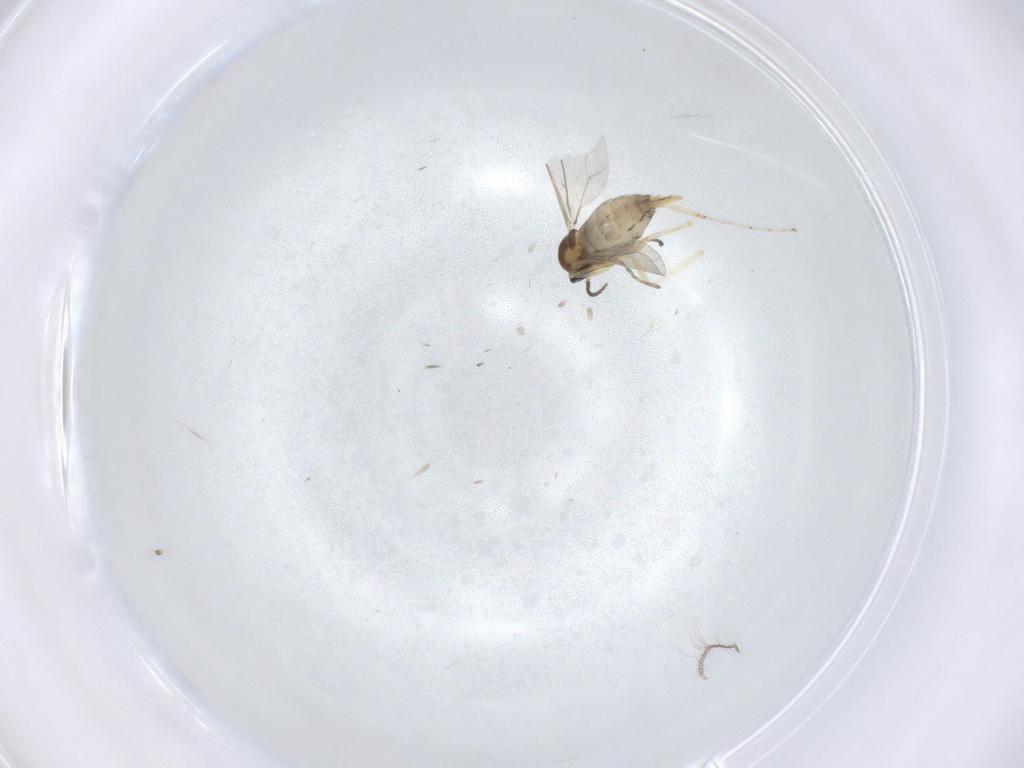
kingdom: Animalia
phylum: Arthropoda
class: Insecta
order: Diptera
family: Cecidomyiidae
